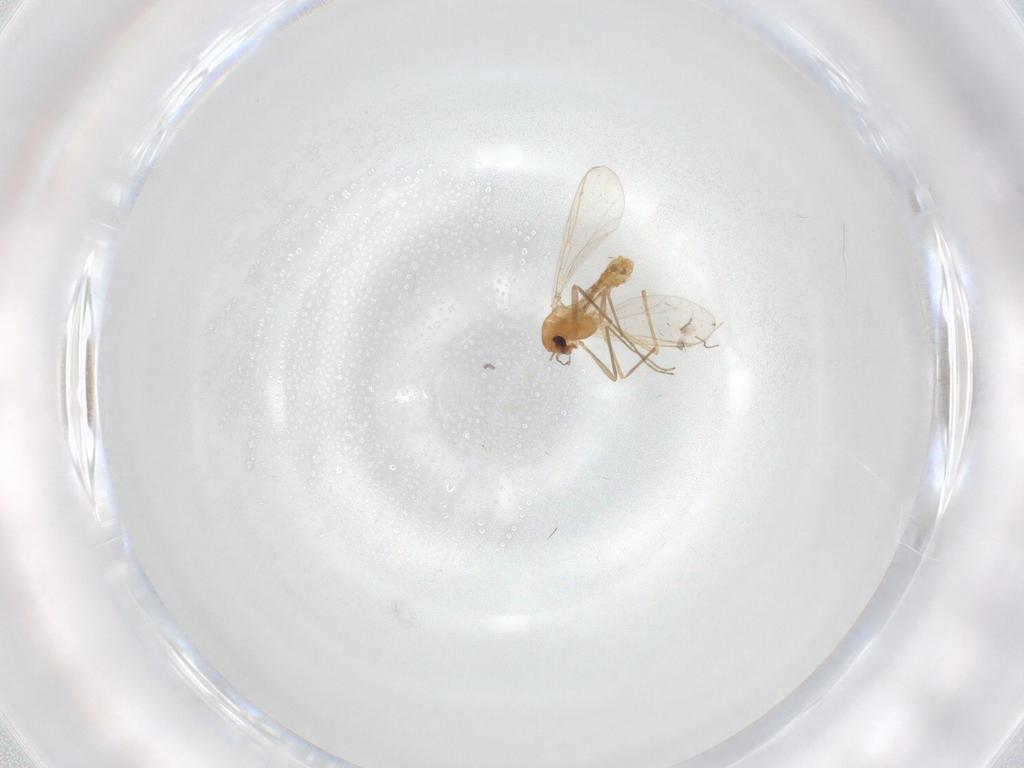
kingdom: Animalia
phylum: Arthropoda
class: Insecta
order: Diptera
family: Chironomidae
